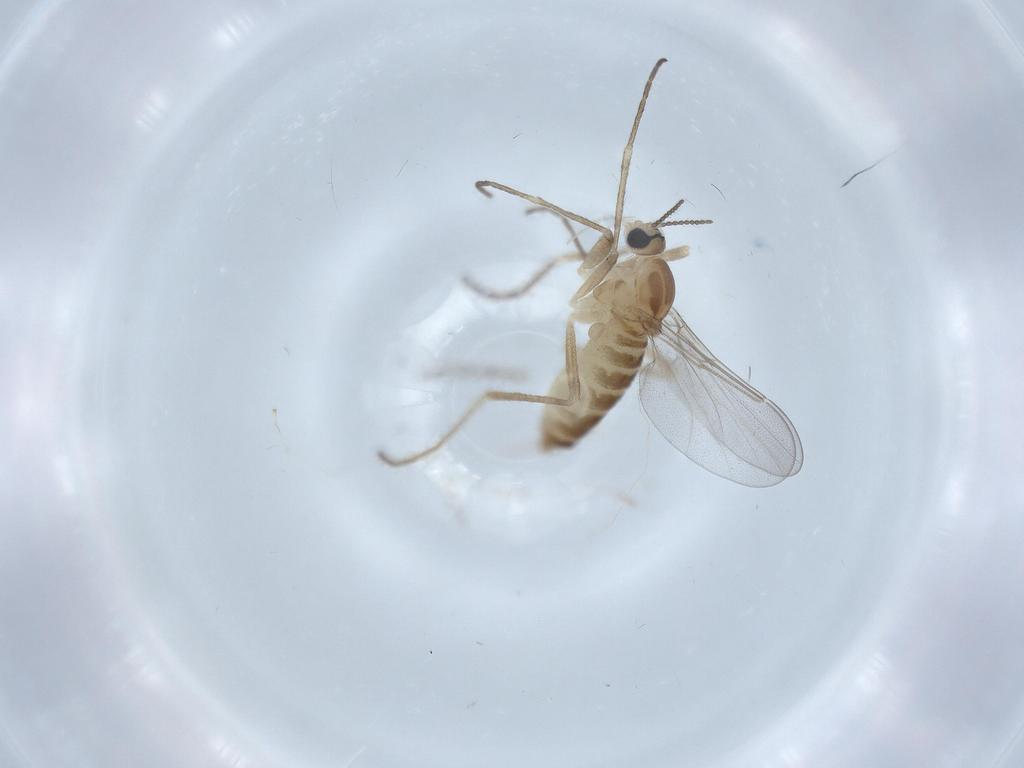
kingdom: Animalia
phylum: Arthropoda
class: Insecta
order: Diptera
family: Cecidomyiidae
